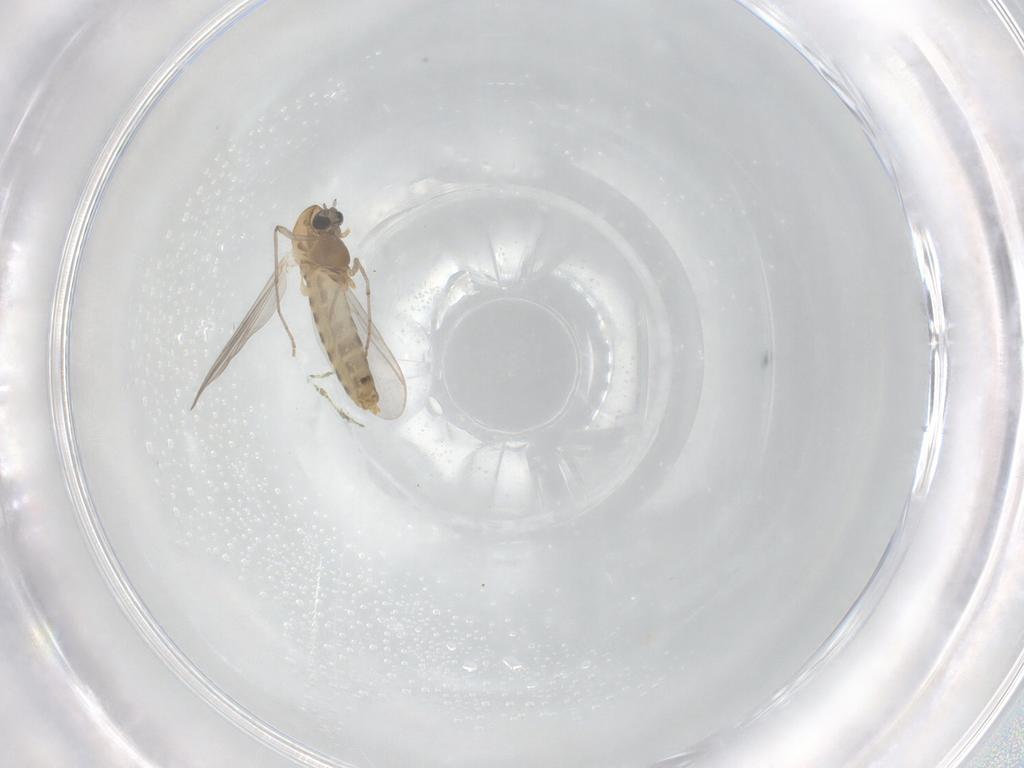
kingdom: Animalia
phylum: Arthropoda
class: Insecta
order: Diptera
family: Chironomidae
